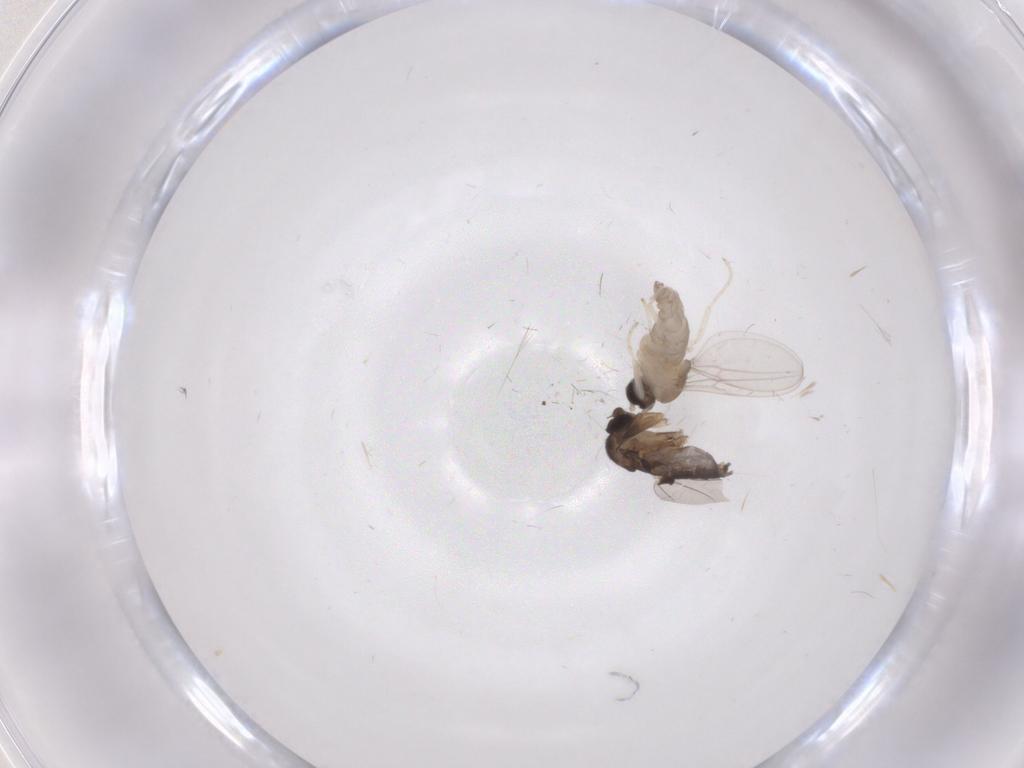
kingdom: Animalia
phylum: Arthropoda
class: Insecta
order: Diptera
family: Cecidomyiidae
